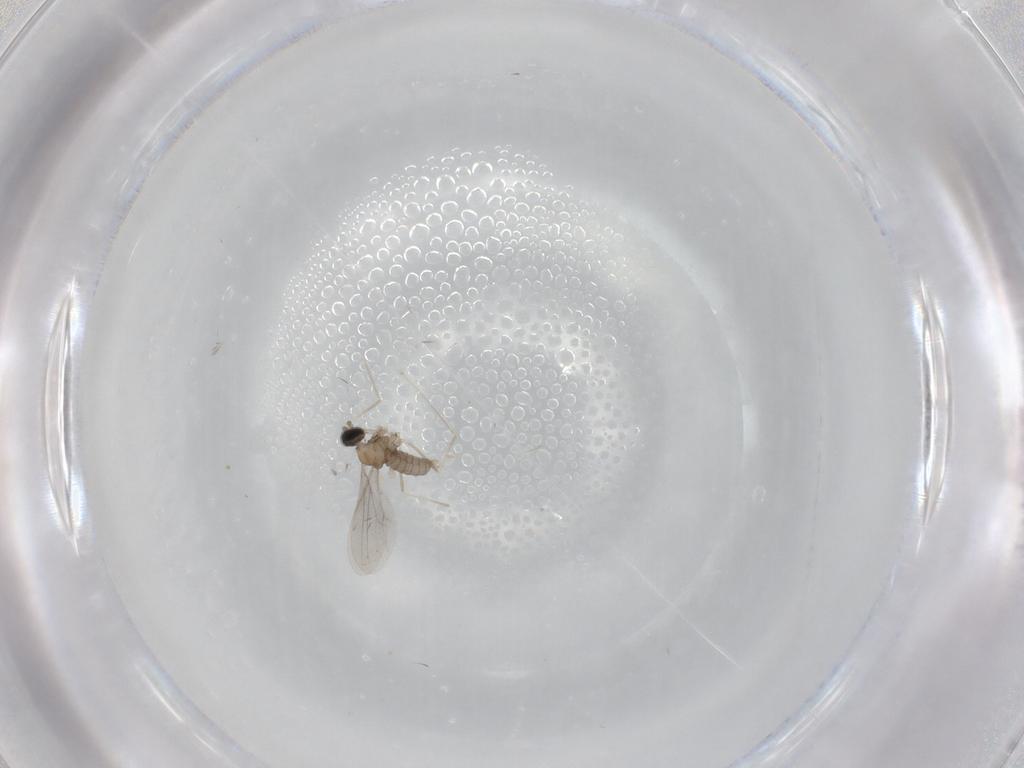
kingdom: Animalia
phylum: Arthropoda
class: Insecta
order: Diptera
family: Cecidomyiidae
